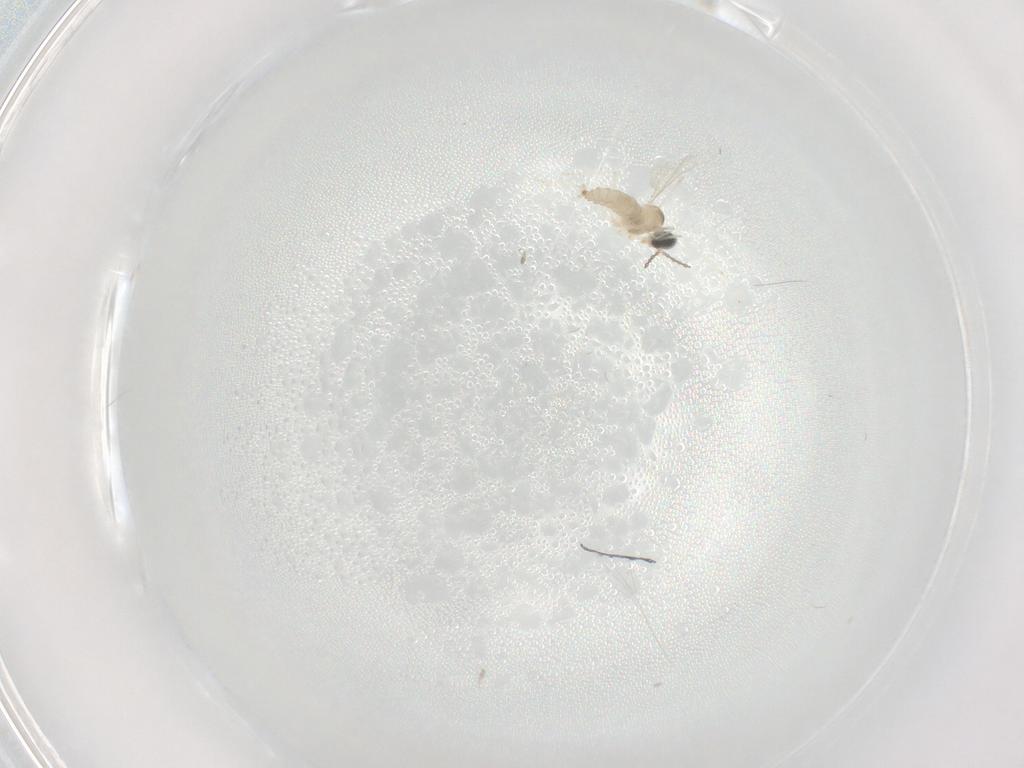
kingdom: Animalia
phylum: Arthropoda
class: Insecta
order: Diptera
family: Cecidomyiidae
